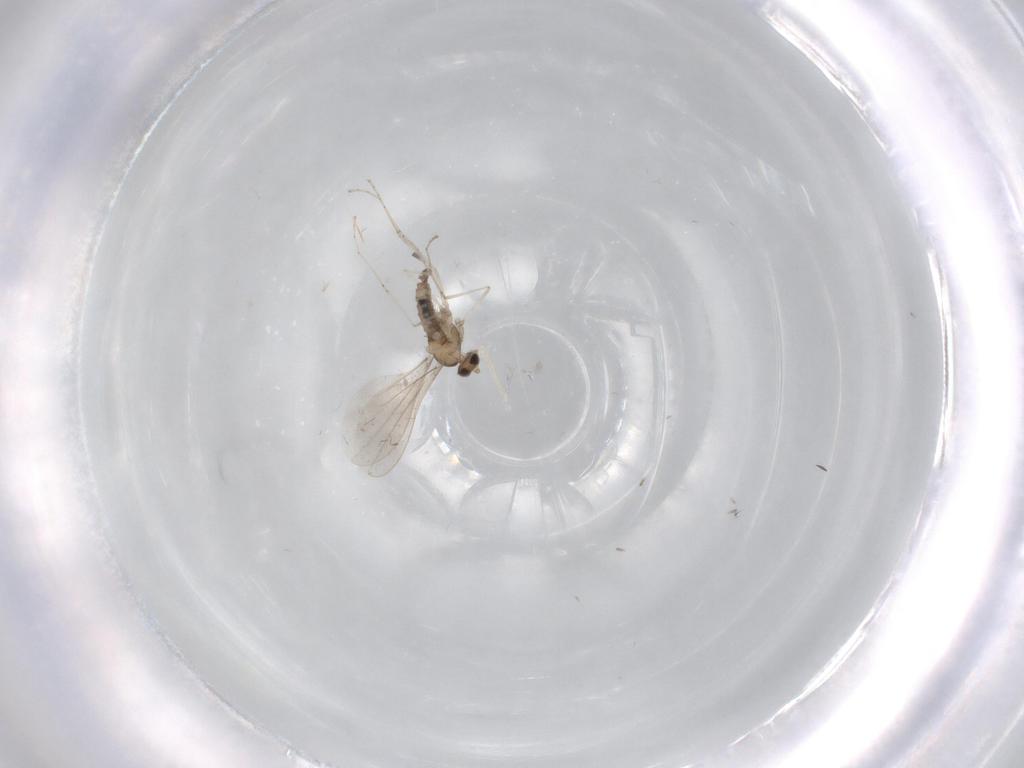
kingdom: Animalia
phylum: Arthropoda
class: Insecta
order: Diptera
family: Cecidomyiidae
